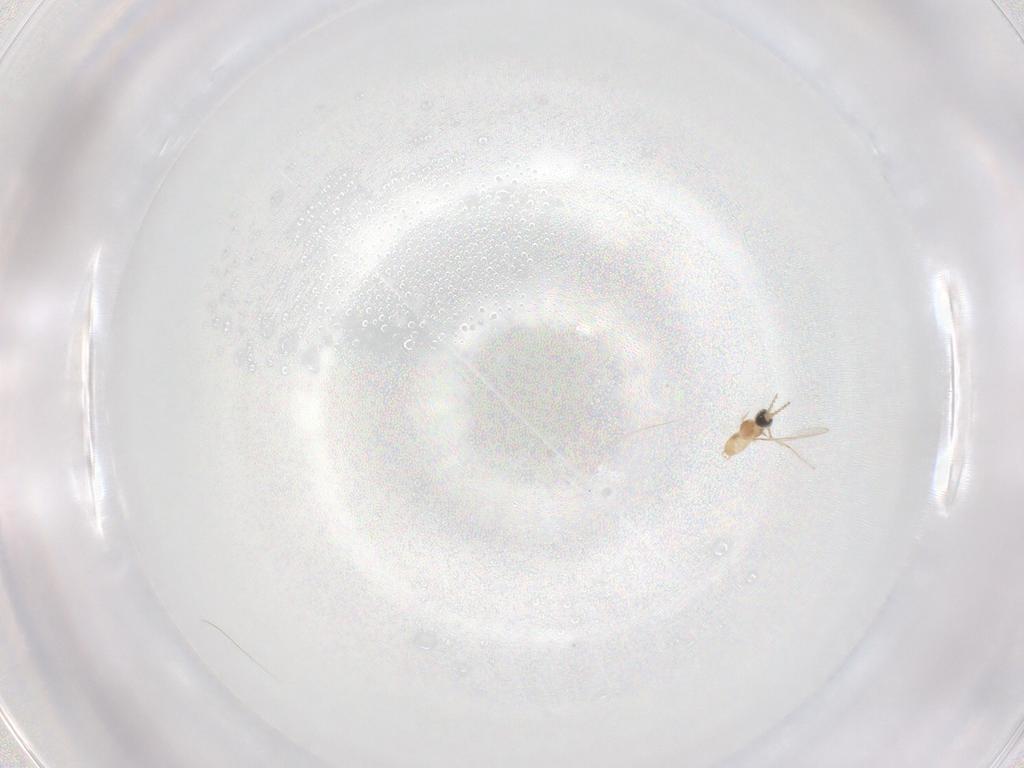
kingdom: Animalia
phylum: Arthropoda
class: Insecta
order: Diptera
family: Cecidomyiidae
